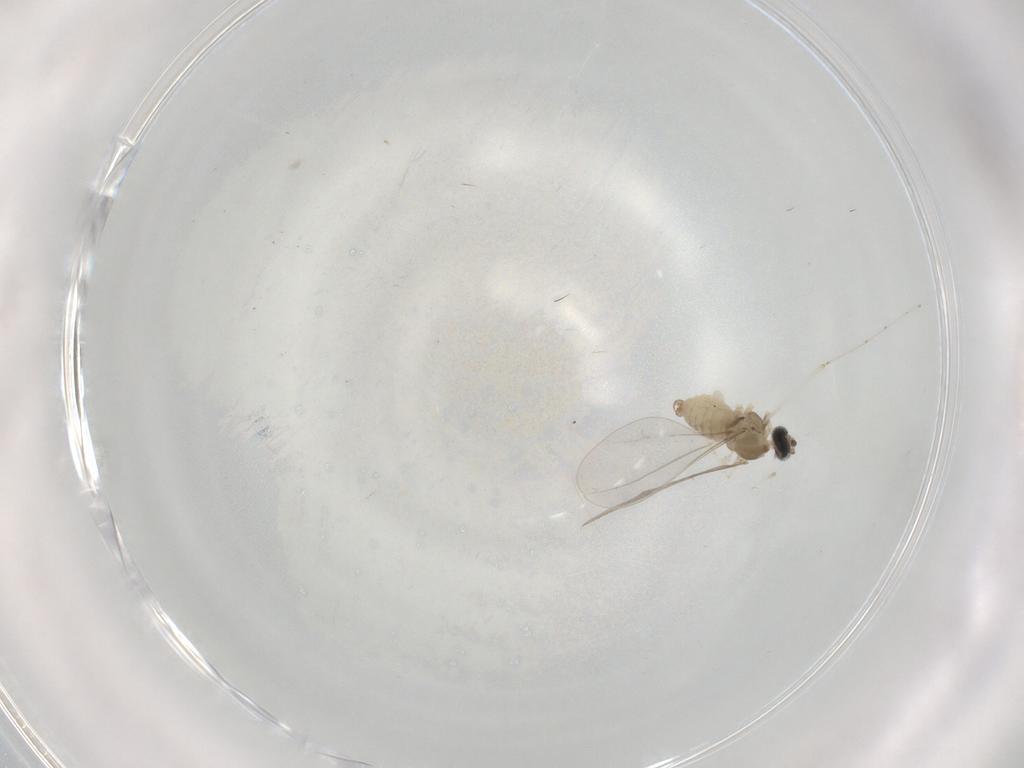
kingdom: Animalia
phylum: Arthropoda
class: Insecta
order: Diptera
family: Cecidomyiidae
